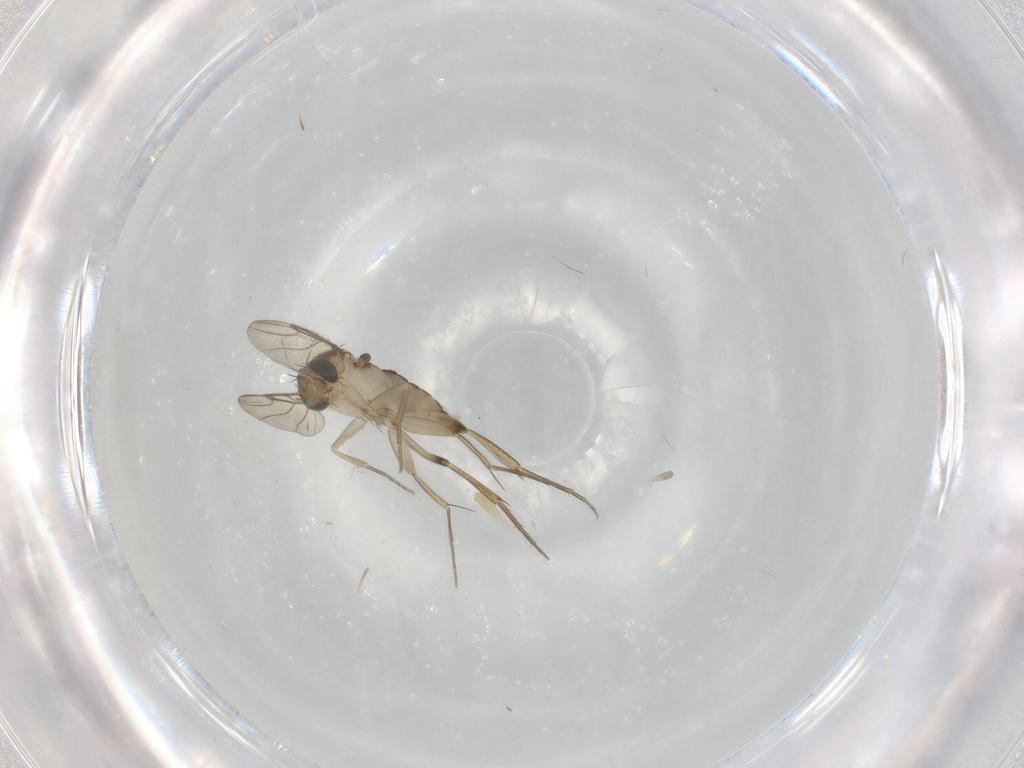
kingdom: Animalia
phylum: Arthropoda
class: Insecta
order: Diptera
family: Phoridae
